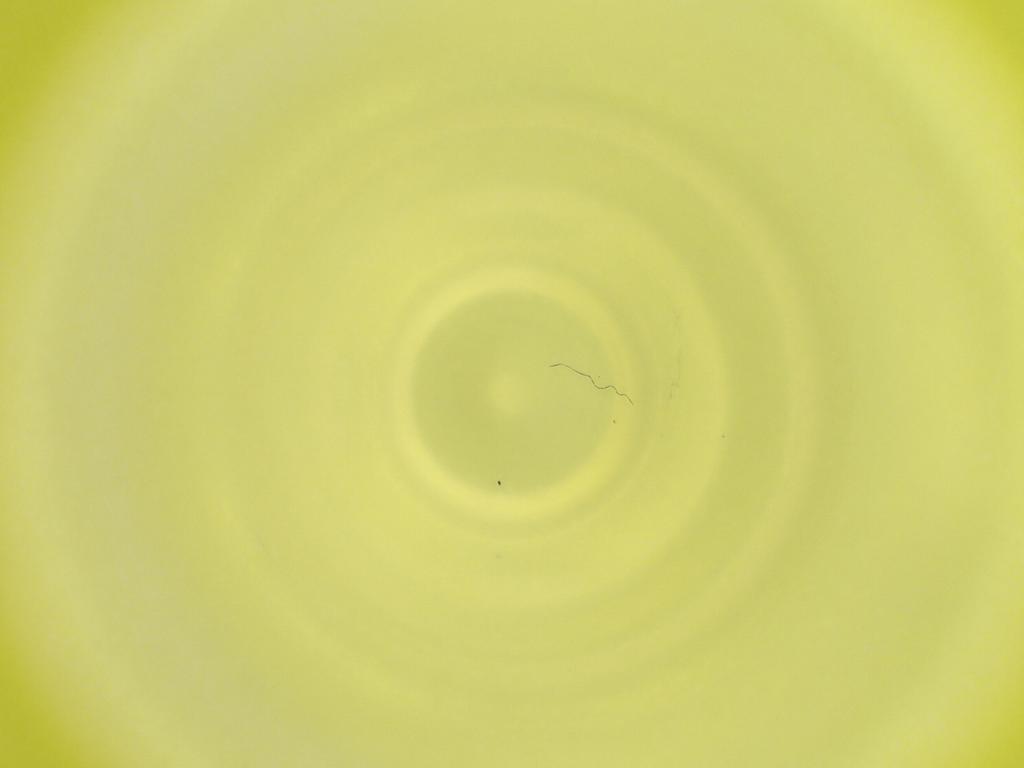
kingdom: Animalia
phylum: Arthropoda
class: Insecta
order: Diptera
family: Cecidomyiidae
